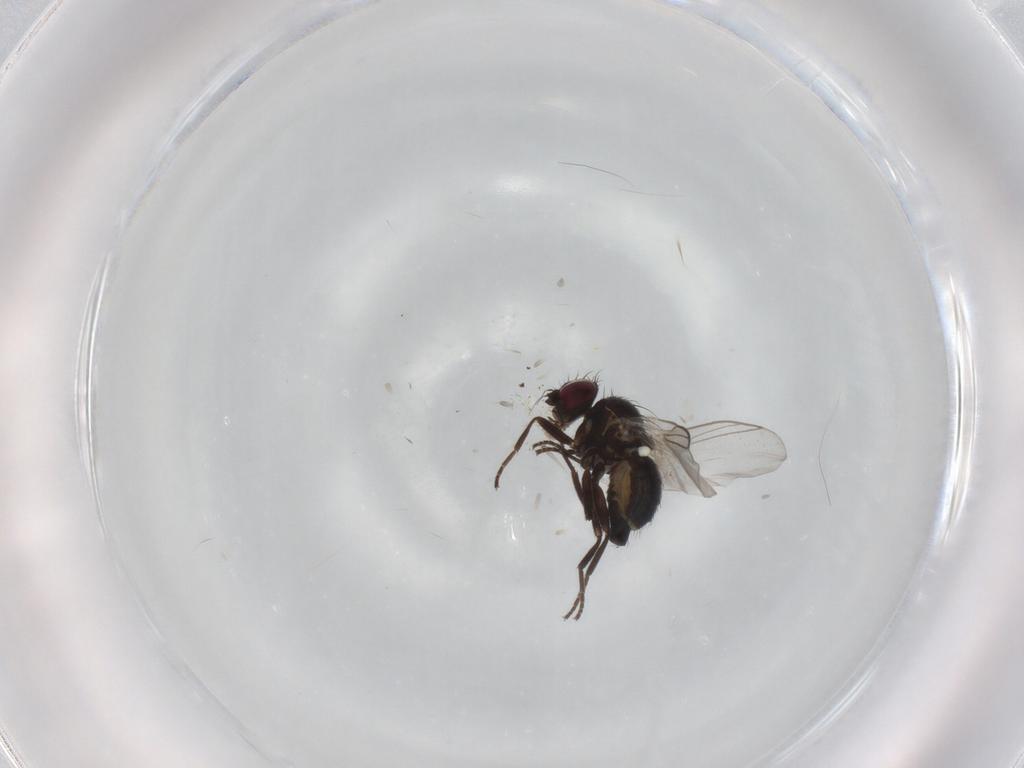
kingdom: Animalia
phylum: Arthropoda
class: Insecta
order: Diptera
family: Agromyzidae
